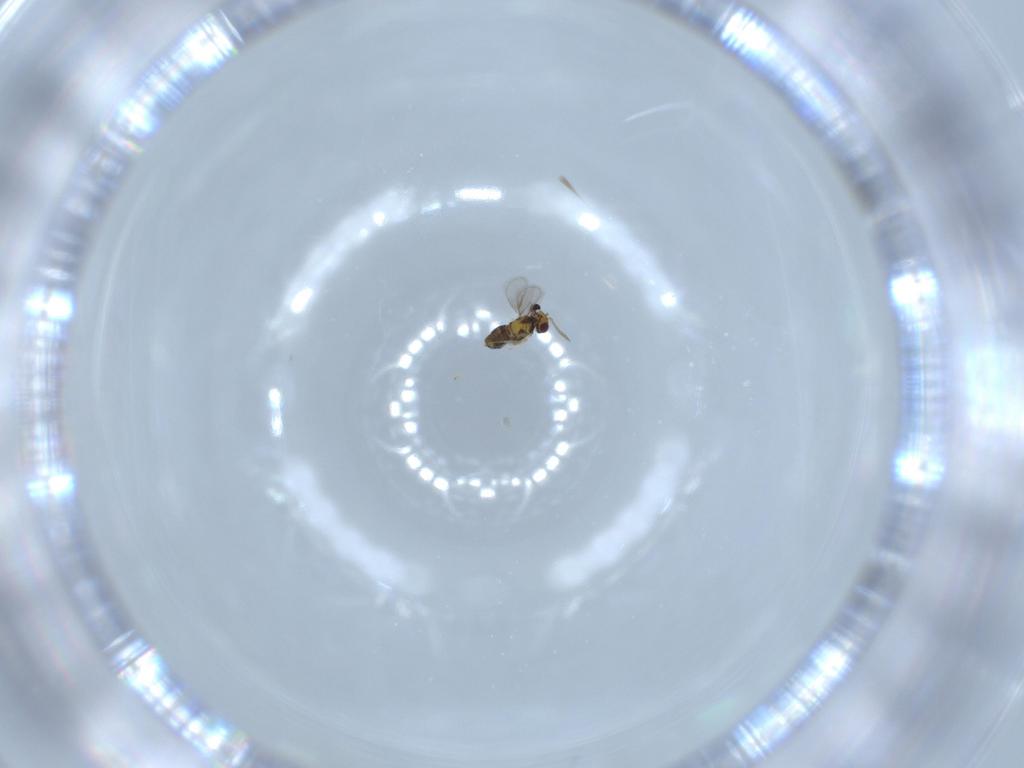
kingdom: Animalia
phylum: Arthropoda
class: Insecta
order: Hymenoptera
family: Aphelinidae
